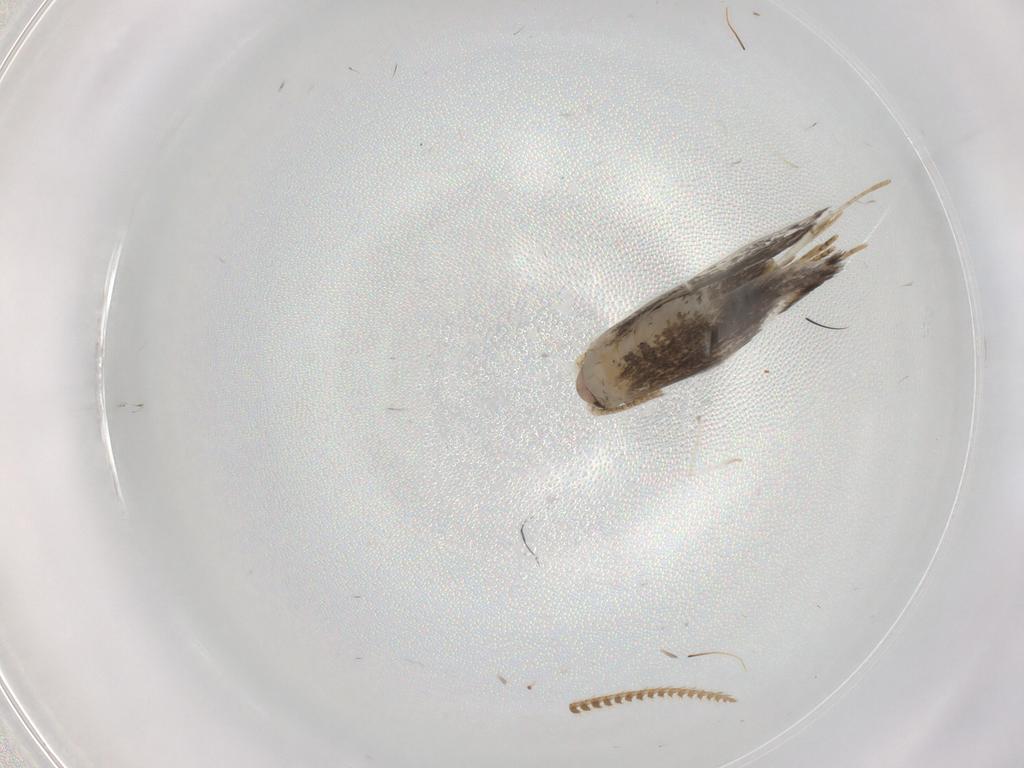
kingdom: Animalia
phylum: Arthropoda
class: Insecta
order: Lepidoptera
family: Tineidae
